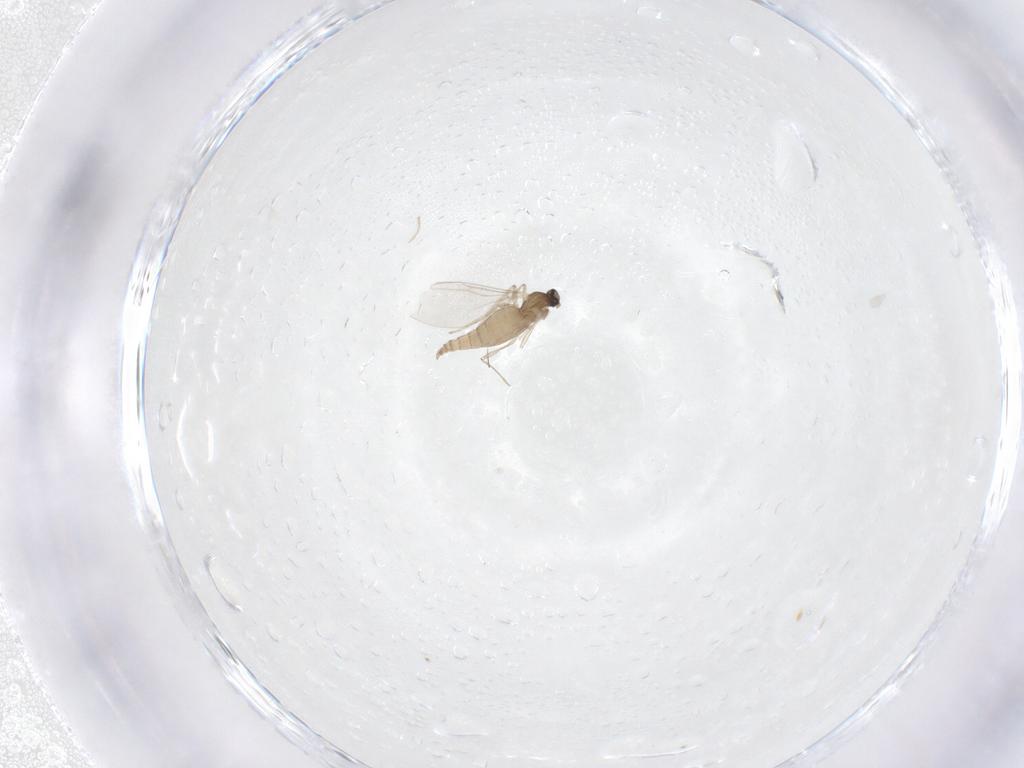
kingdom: Animalia
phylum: Arthropoda
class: Insecta
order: Diptera
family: Cecidomyiidae
